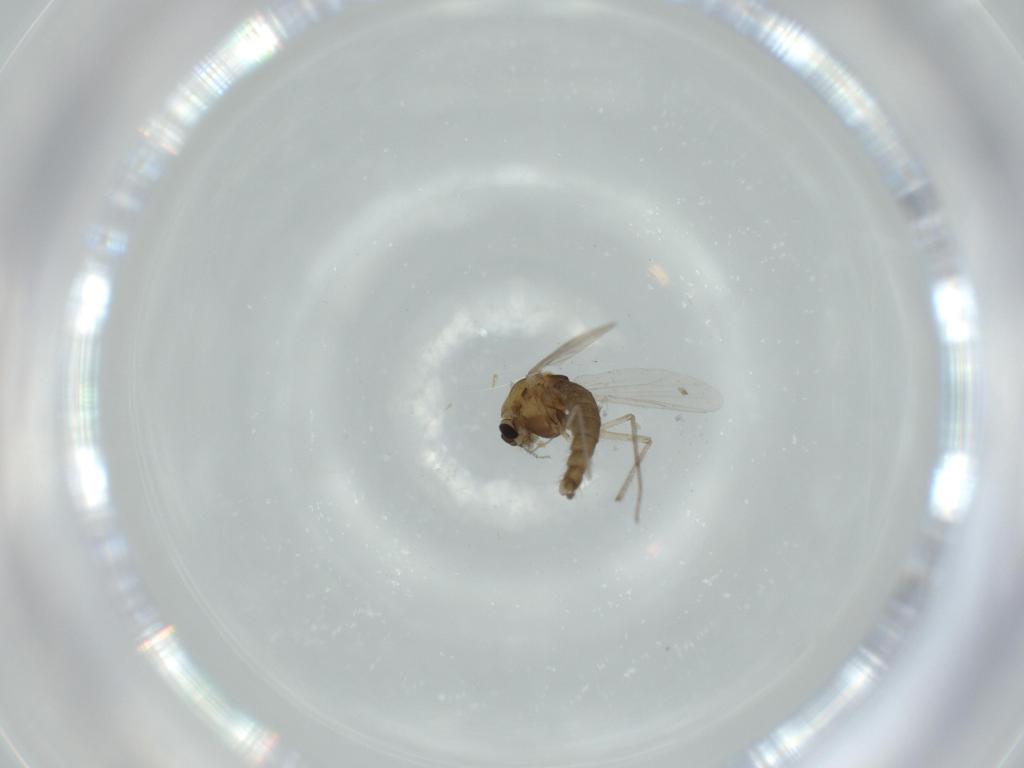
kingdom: Animalia
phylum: Arthropoda
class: Insecta
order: Diptera
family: Chironomidae
